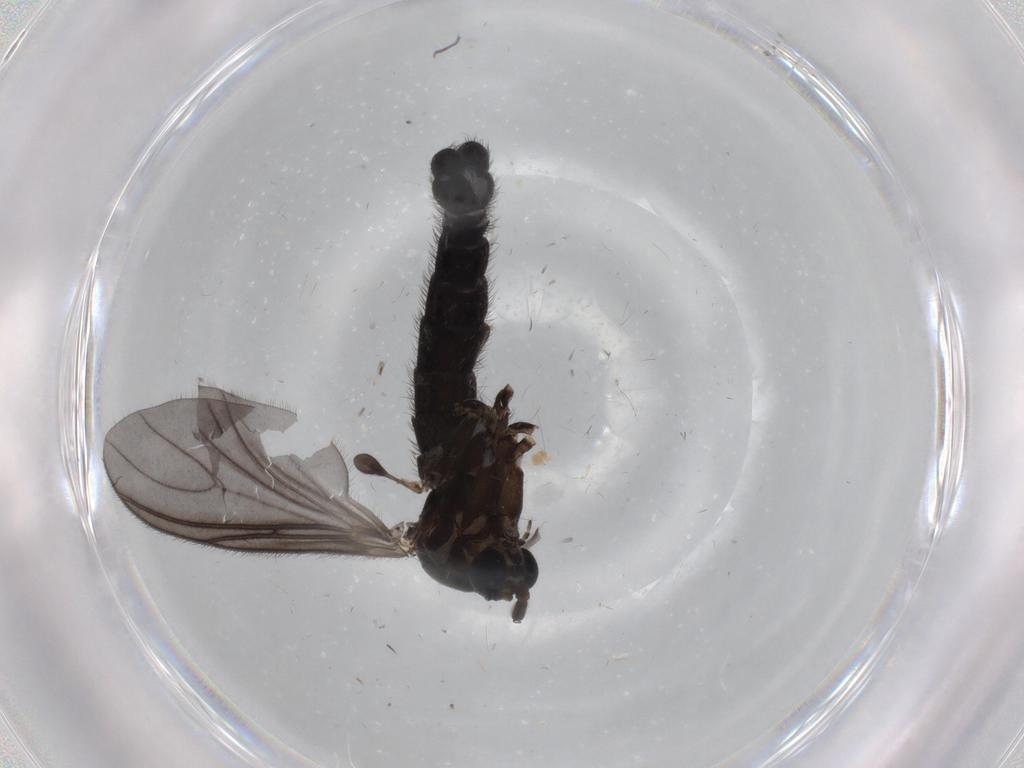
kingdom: Animalia
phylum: Arthropoda
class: Insecta
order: Diptera
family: Sciaridae
